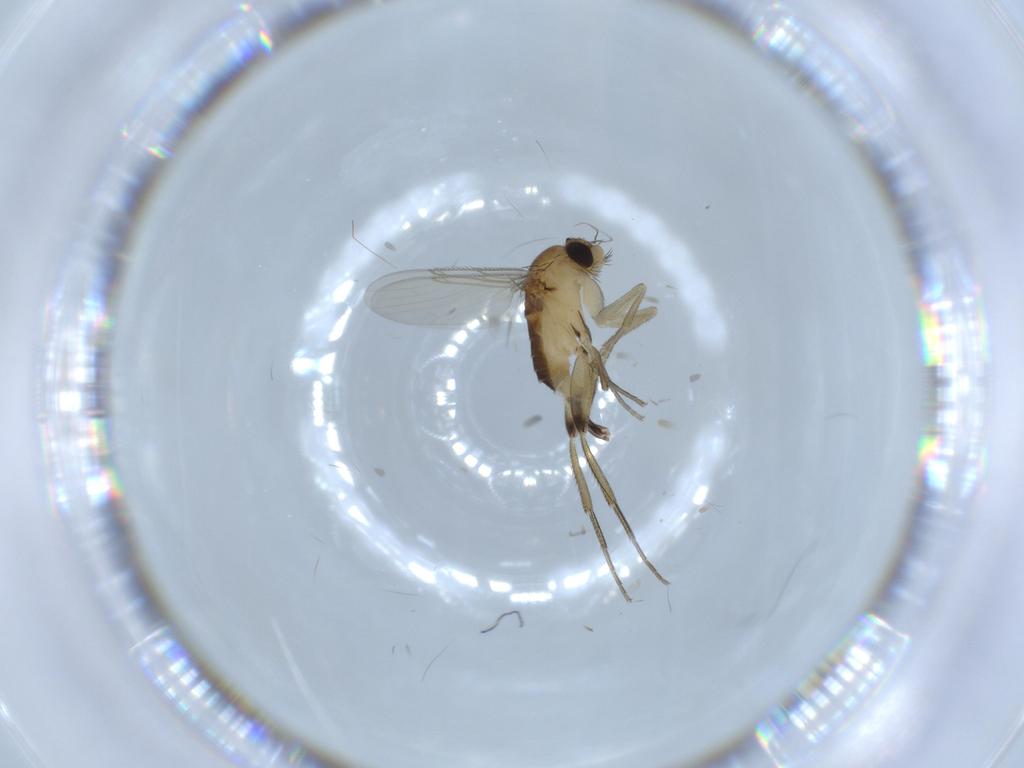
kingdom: Animalia
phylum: Arthropoda
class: Insecta
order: Diptera
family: Phoridae
